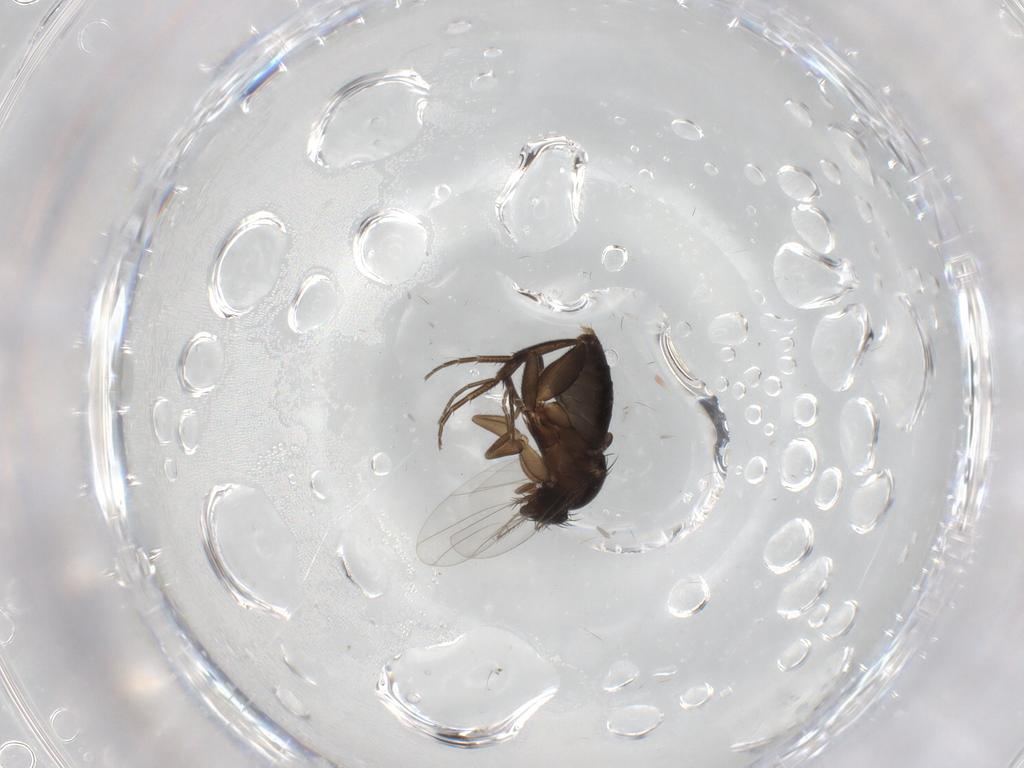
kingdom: Animalia
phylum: Arthropoda
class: Insecta
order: Diptera
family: Phoridae
